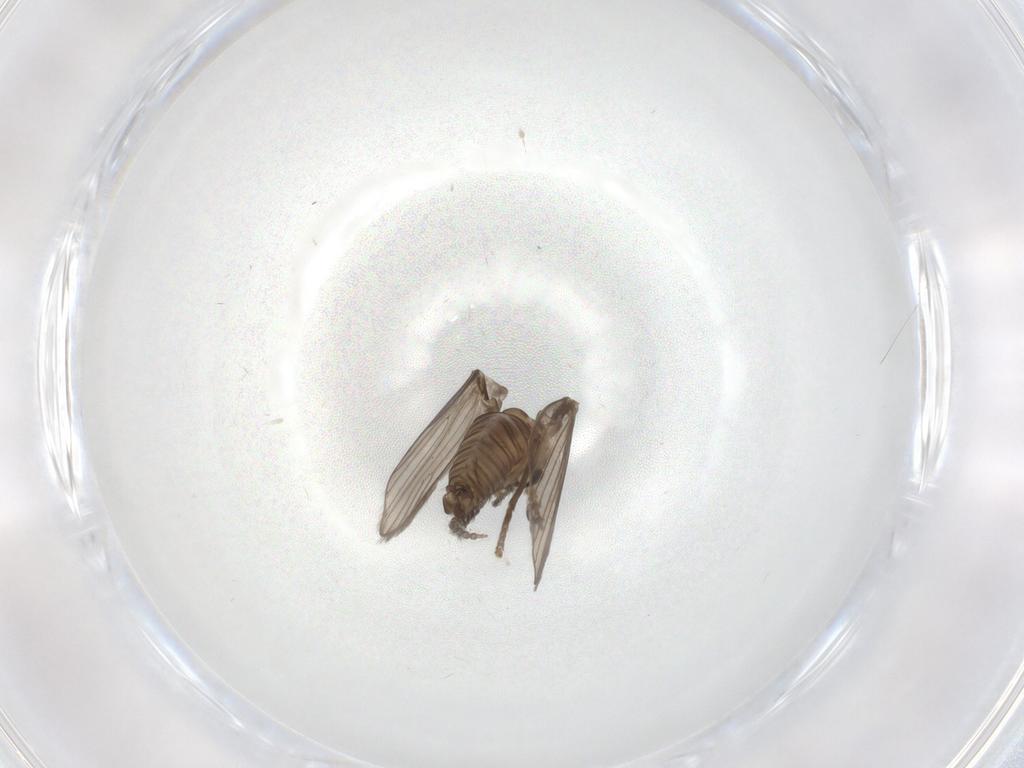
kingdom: Animalia
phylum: Arthropoda
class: Insecta
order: Diptera
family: Psychodidae
